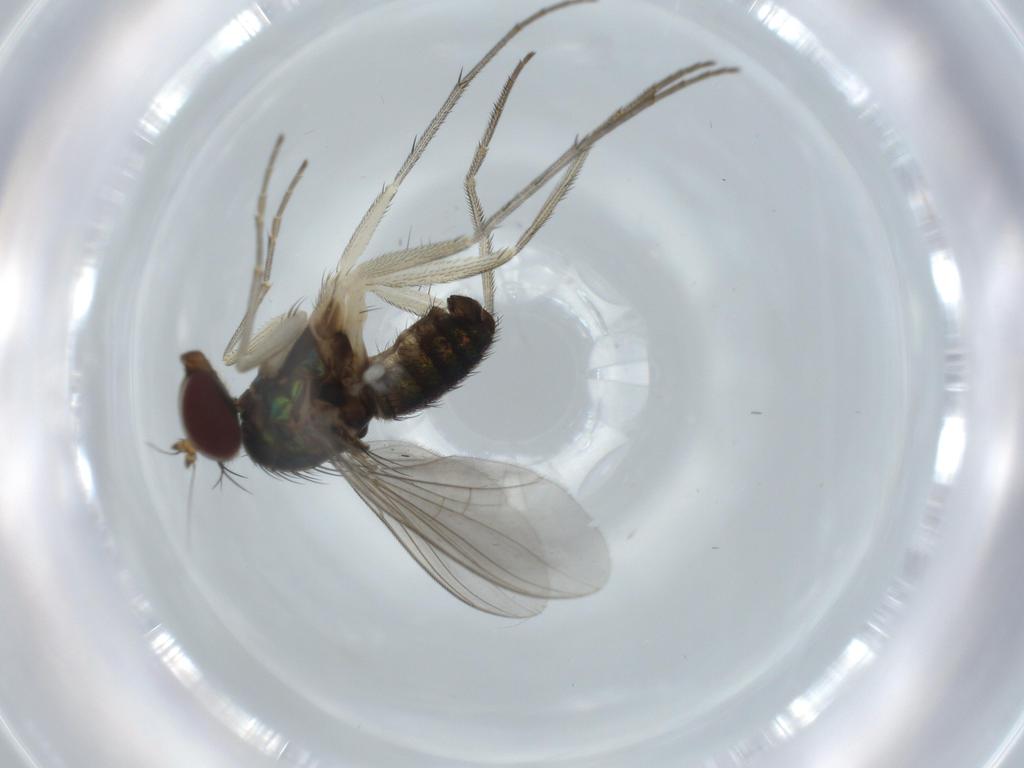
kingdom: Animalia
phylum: Arthropoda
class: Insecta
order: Diptera
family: Dolichopodidae
